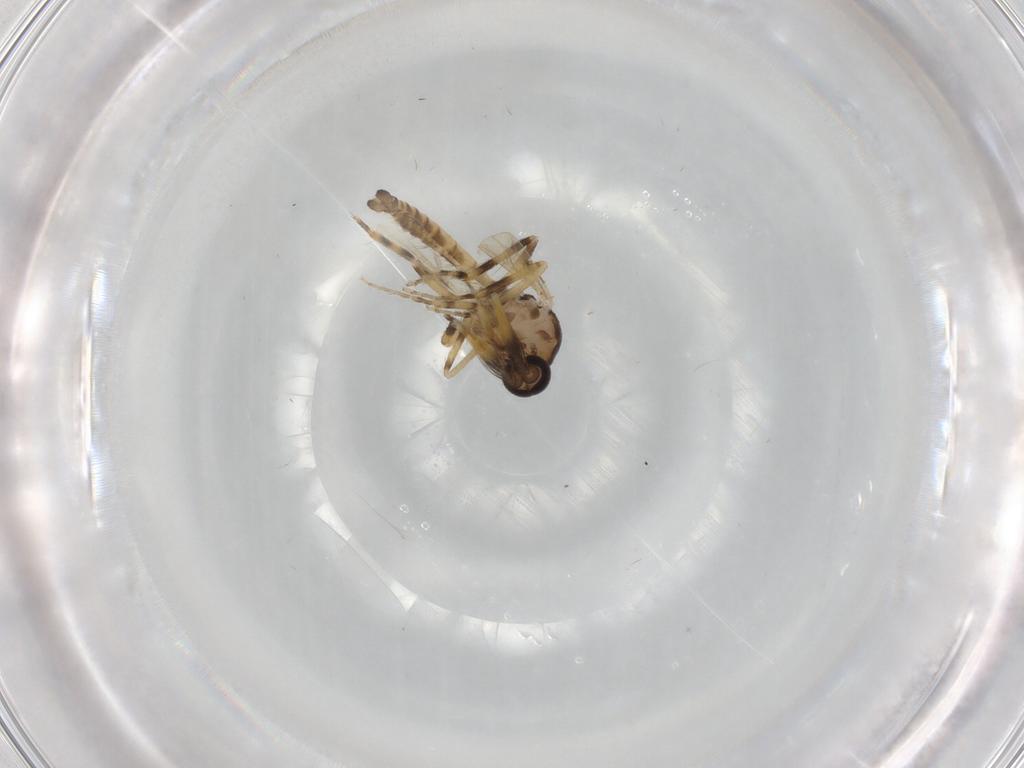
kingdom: Animalia
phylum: Arthropoda
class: Insecta
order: Diptera
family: Ceratopogonidae
